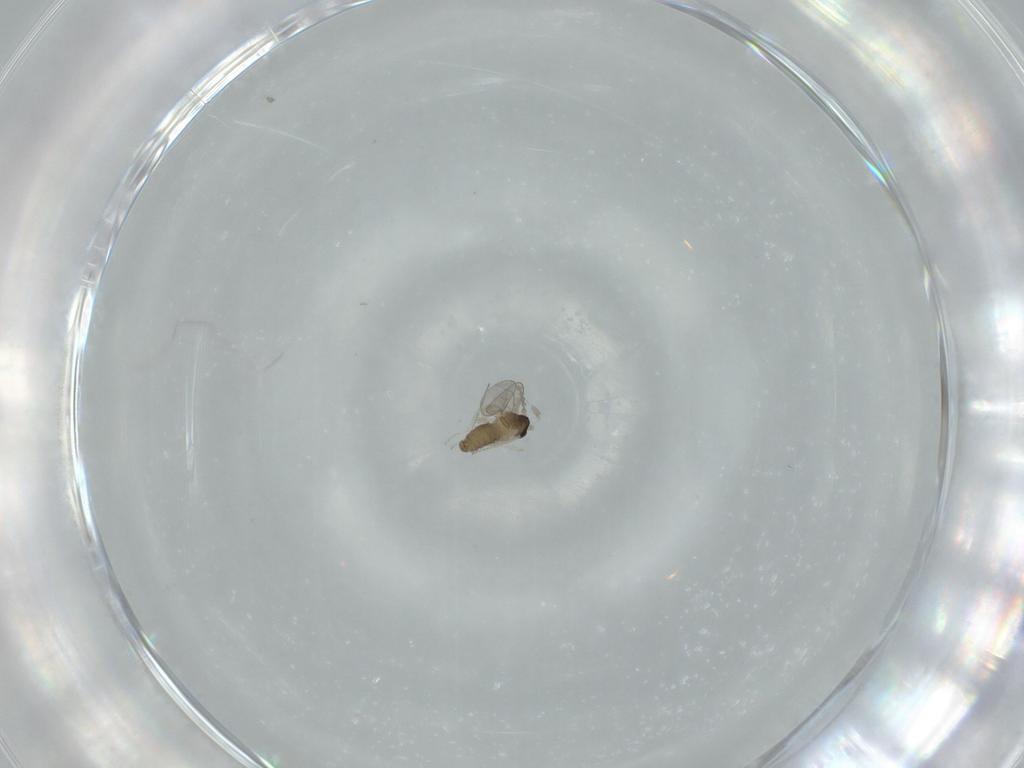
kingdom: Animalia
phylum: Arthropoda
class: Insecta
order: Diptera
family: Cecidomyiidae
